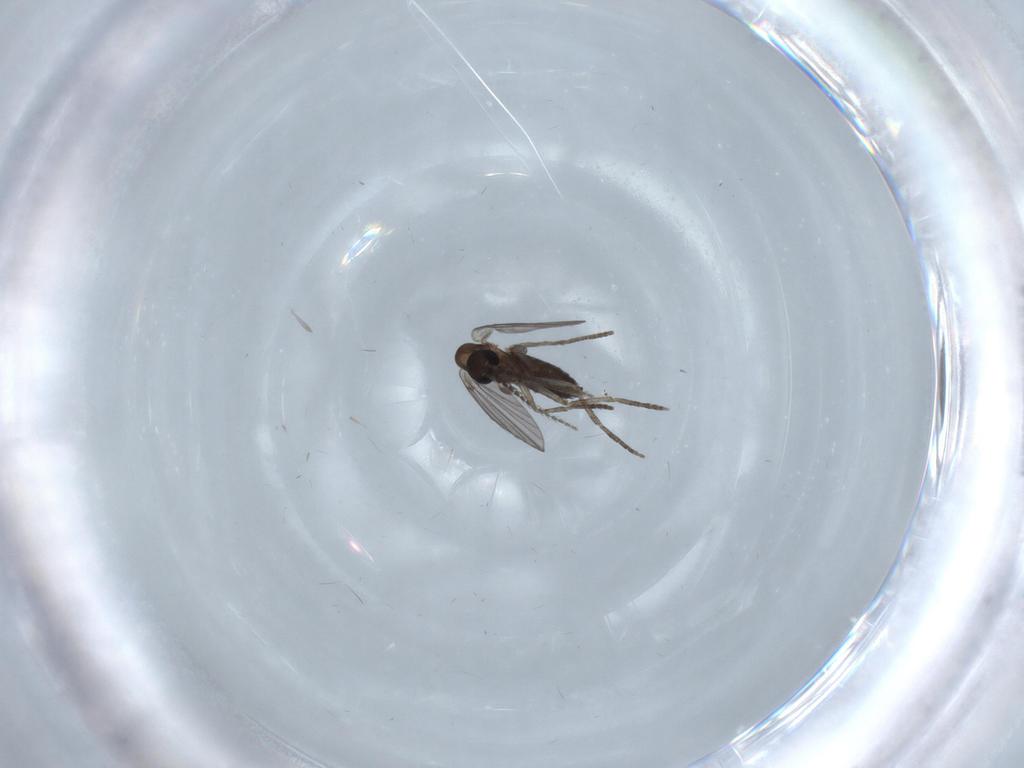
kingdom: Animalia
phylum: Arthropoda
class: Insecta
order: Diptera
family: Psychodidae
